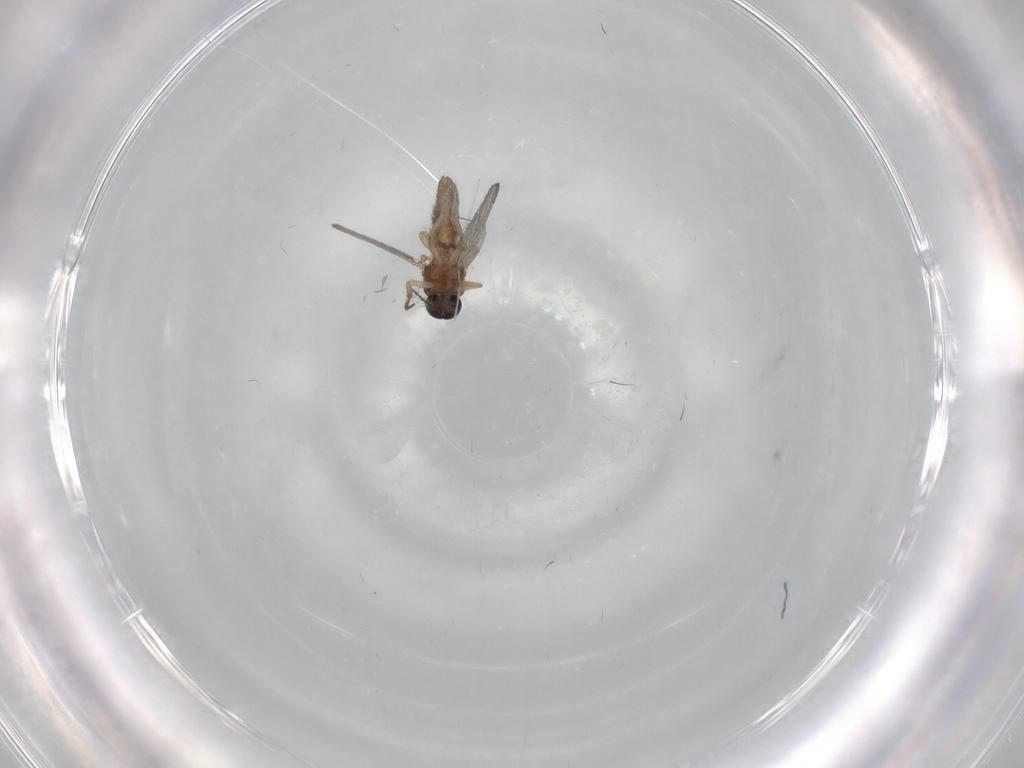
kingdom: Animalia
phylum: Arthropoda
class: Insecta
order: Diptera
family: Ceratopogonidae
